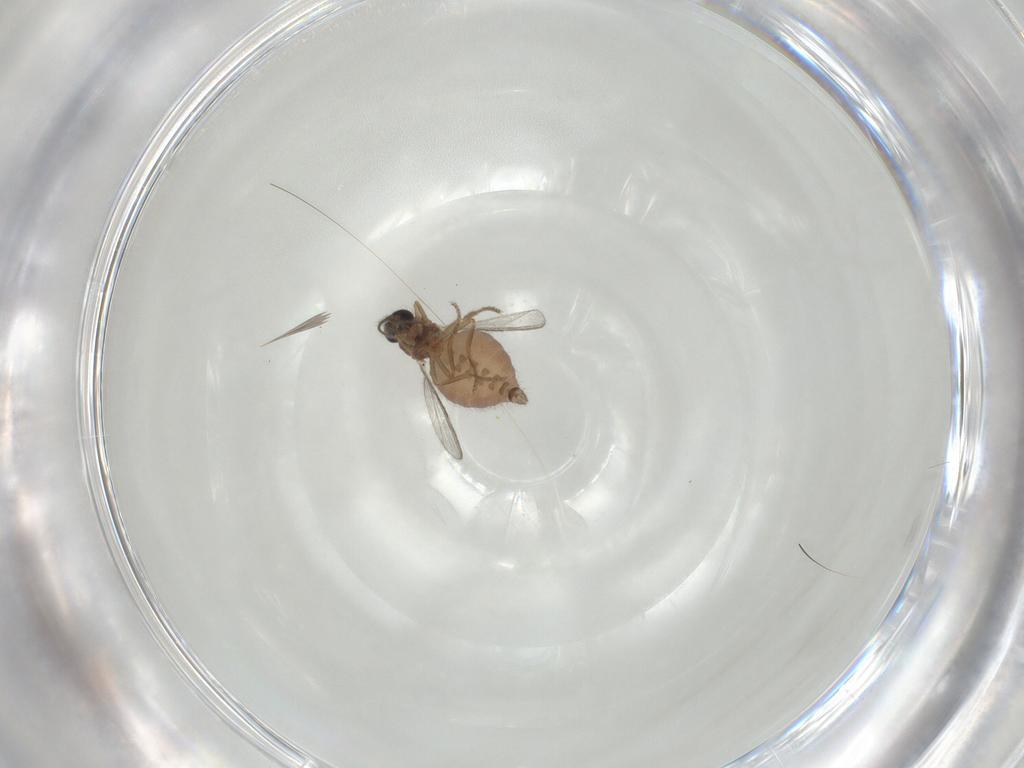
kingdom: Animalia
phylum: Arthropoda
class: Insecta
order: Diptera
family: Ceratopogonidae
